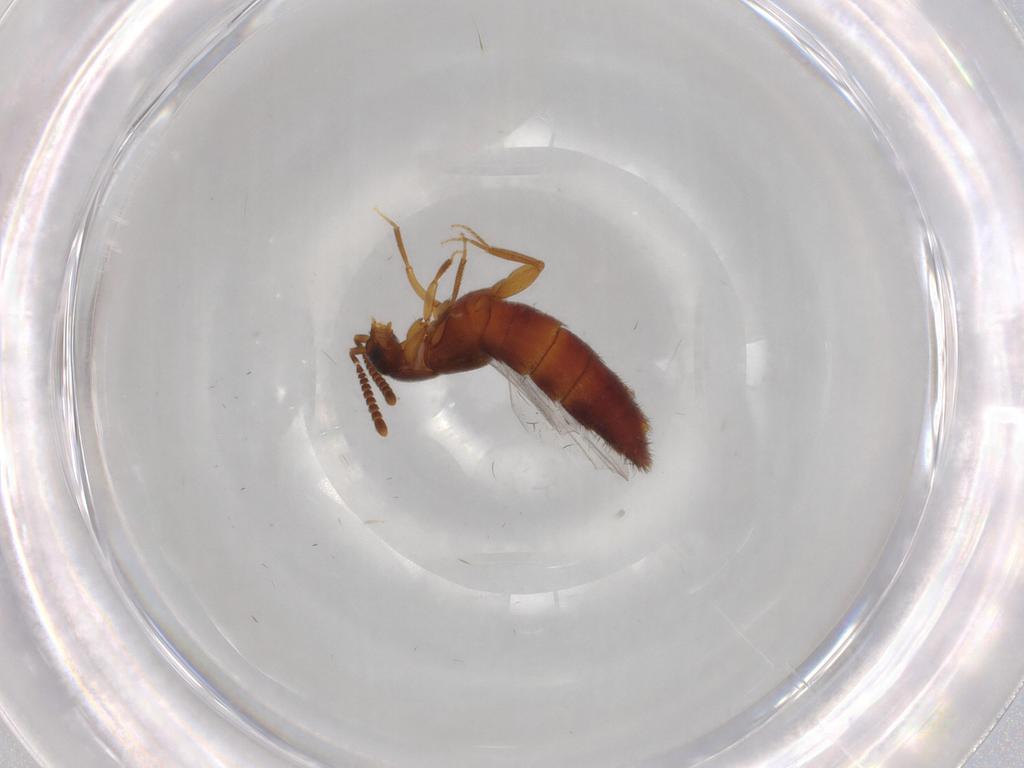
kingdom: Animalia
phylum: Arthropoda
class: Insecta
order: Coleoptera
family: Staphylinidae
